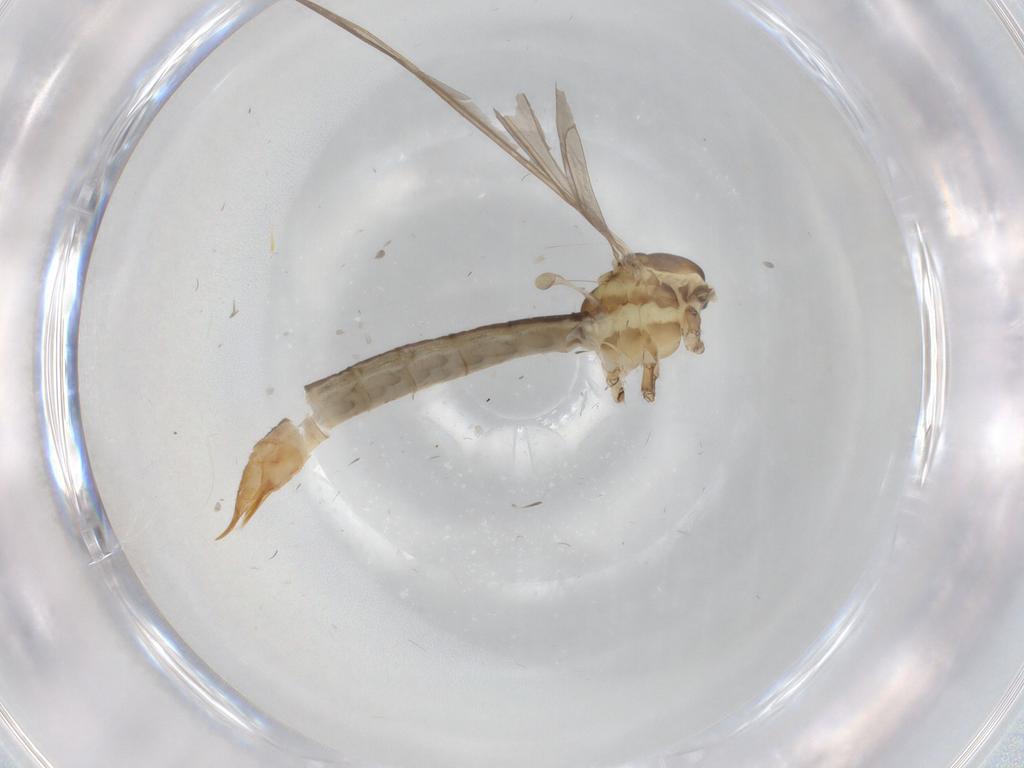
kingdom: Animalia
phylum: Arthropoda
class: Insecta
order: Diptera
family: Limoniidae
